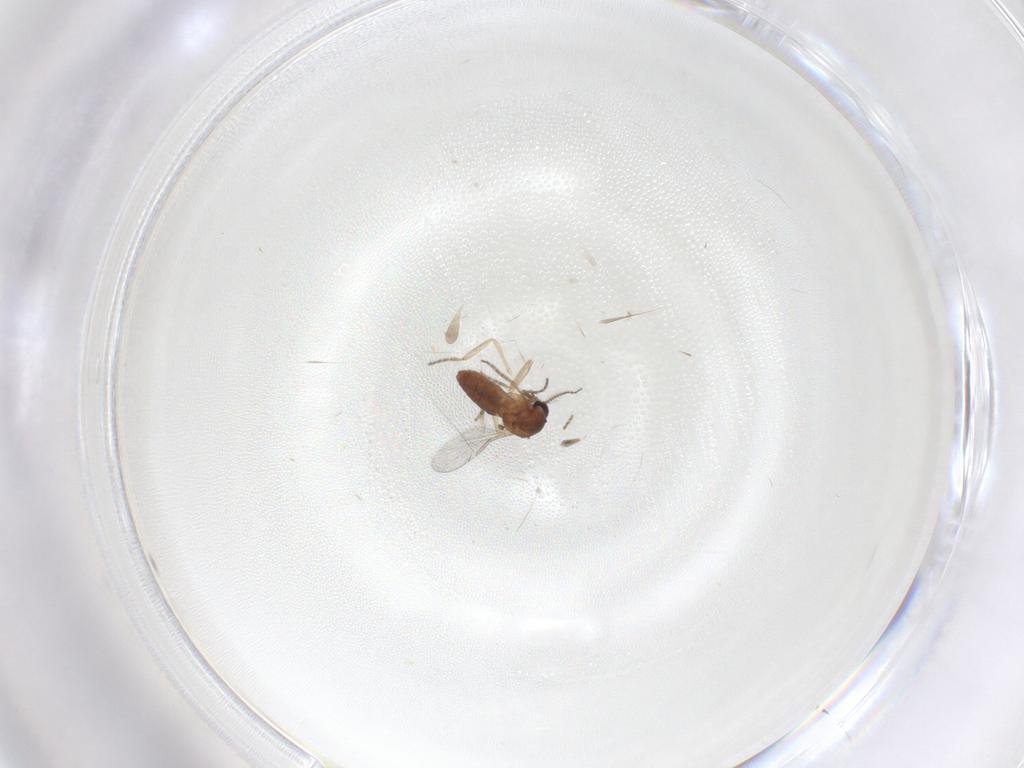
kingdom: Animalia
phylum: Arthropoda
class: Insecta
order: Diptera
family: Ceratopogonidae
